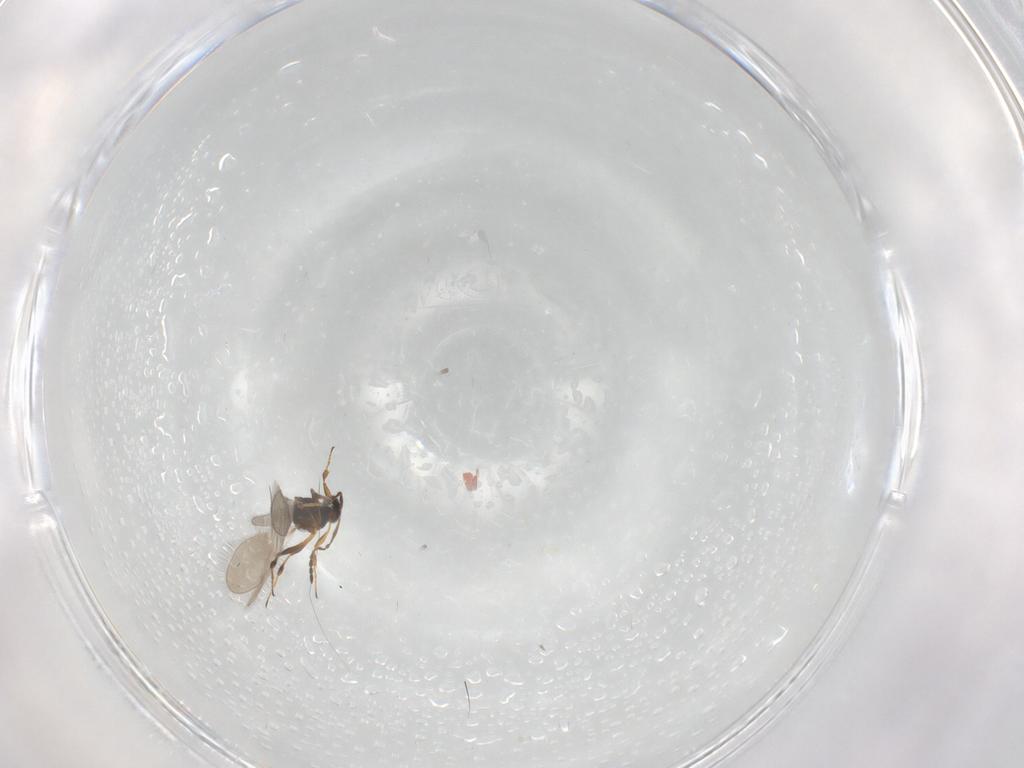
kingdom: Animalia
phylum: Arthropoda
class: Insecta
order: Hymenoptera
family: Platygastridae
